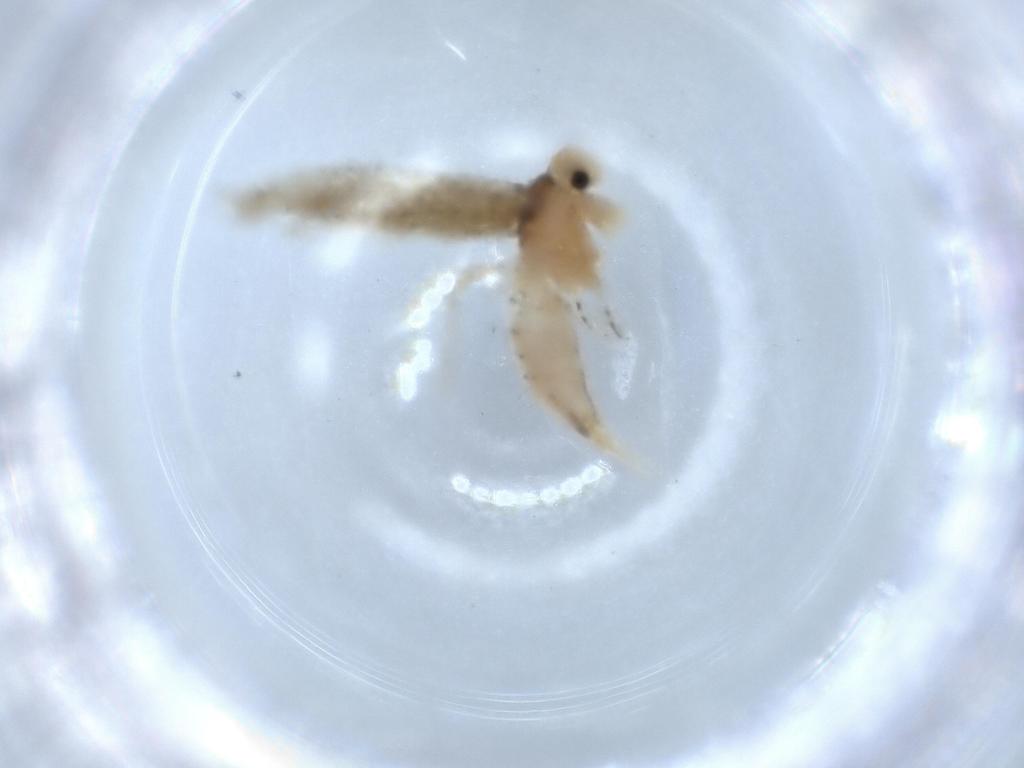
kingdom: Animalia
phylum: Arthropoda
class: Insecta
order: Lepidoptera
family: Tineidae
